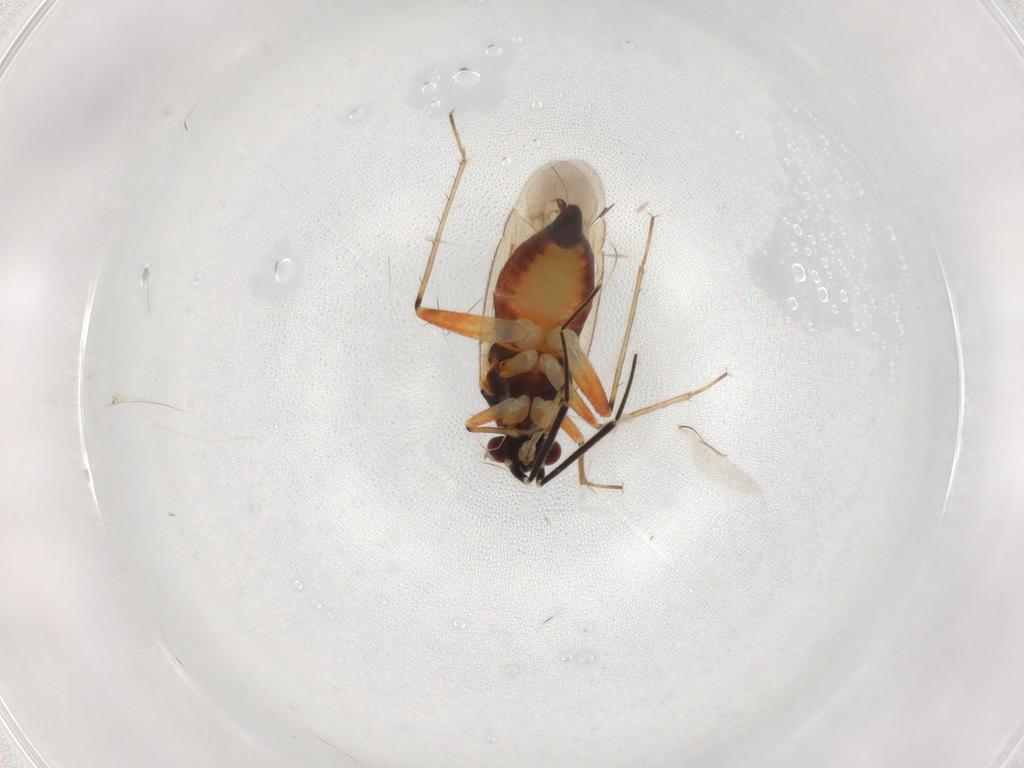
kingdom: Animalia
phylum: Arthropoda
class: Insecta
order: Hemiptera
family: Miridae
